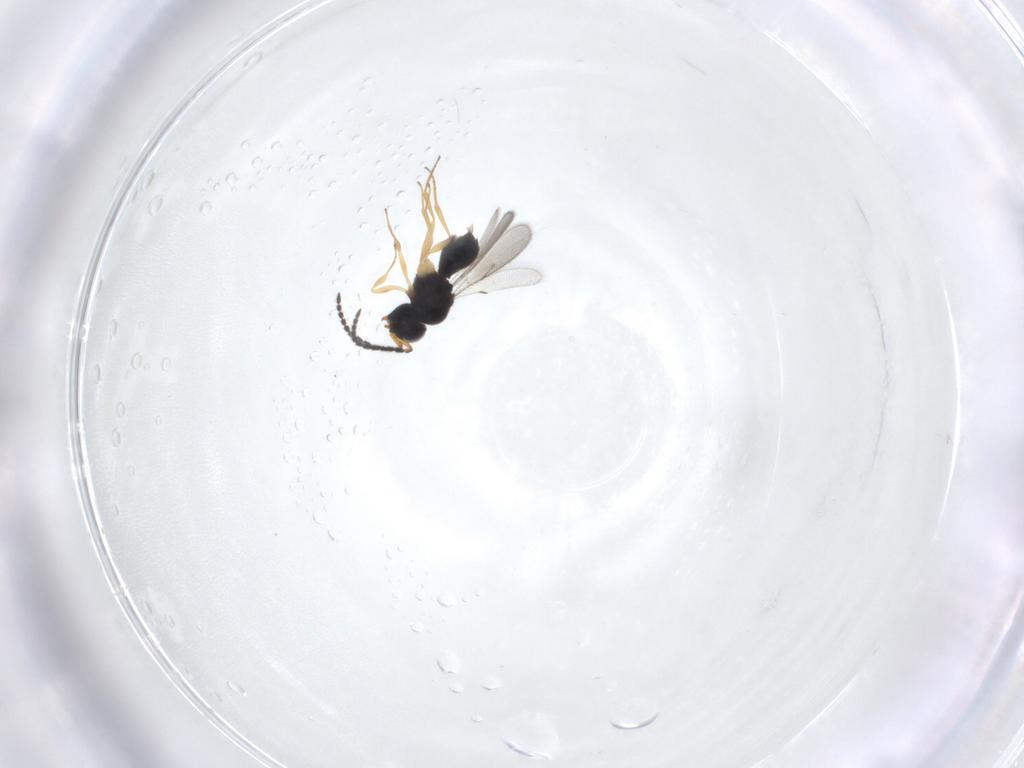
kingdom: Animalia
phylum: Arthropoda
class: Insecta
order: Hymenoptera
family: Scelionidae
